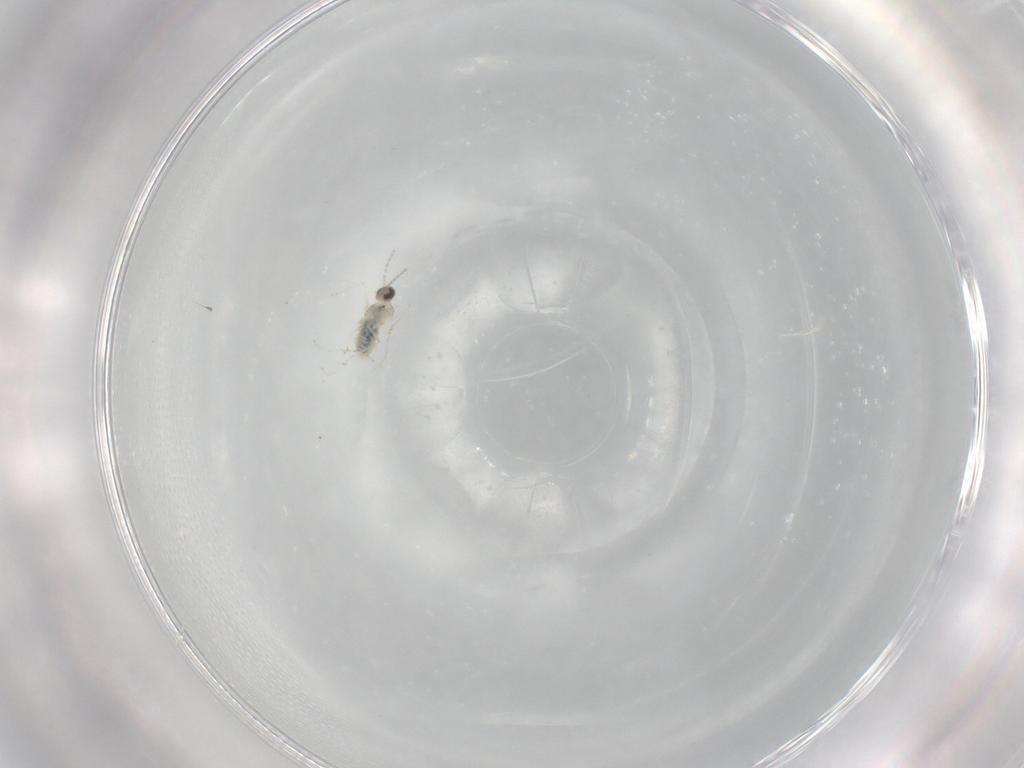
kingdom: Animalia
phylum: Arthropoda
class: Insecta
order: Diptera
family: Cecidomyiidae
